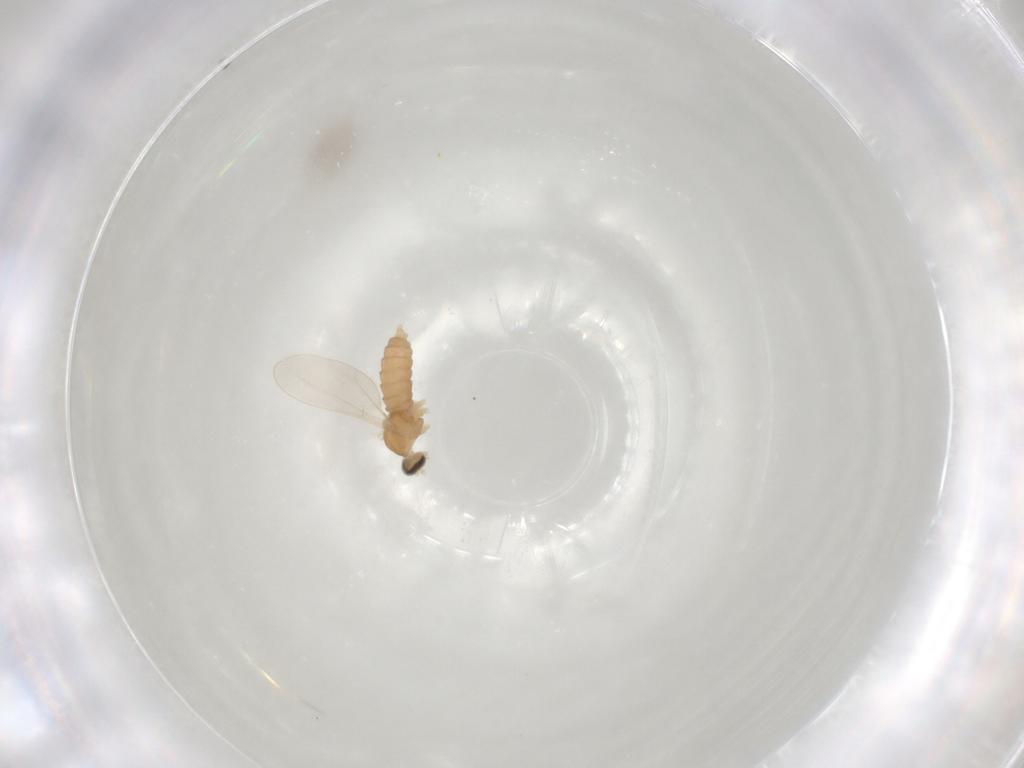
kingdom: Animalia
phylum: Arthropoda
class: Insecta
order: Diptera
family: Cecidomyiidae
